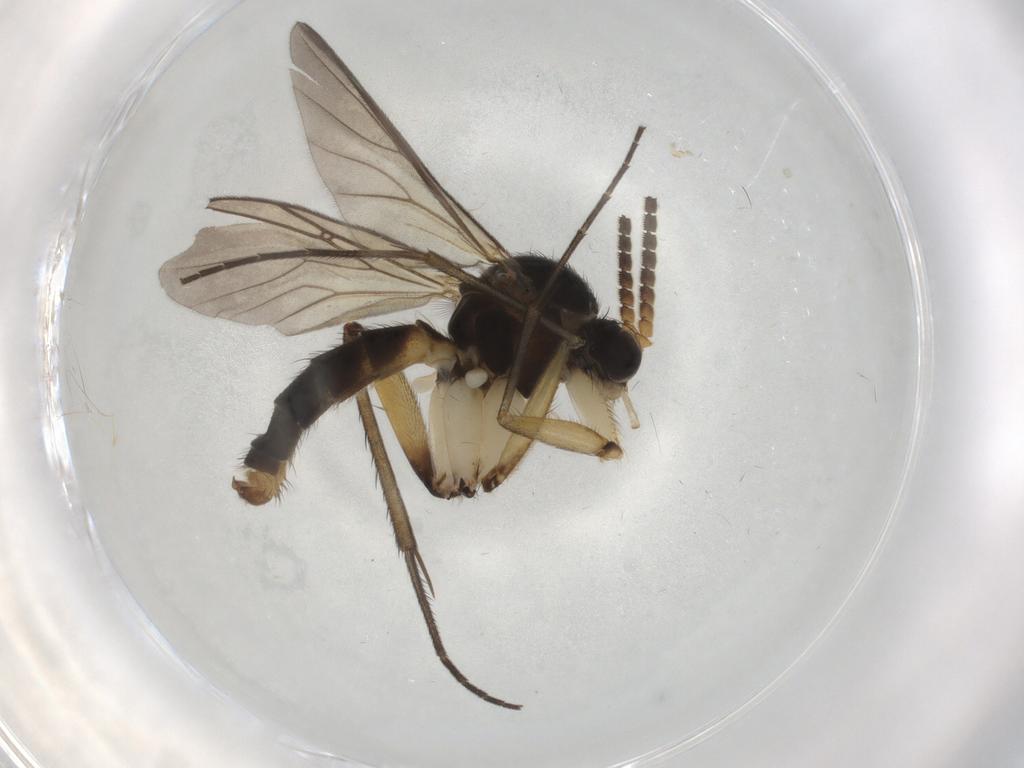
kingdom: Animalia
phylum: Arthropoda
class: Insecta
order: Diptera
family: Mycetophilidae
